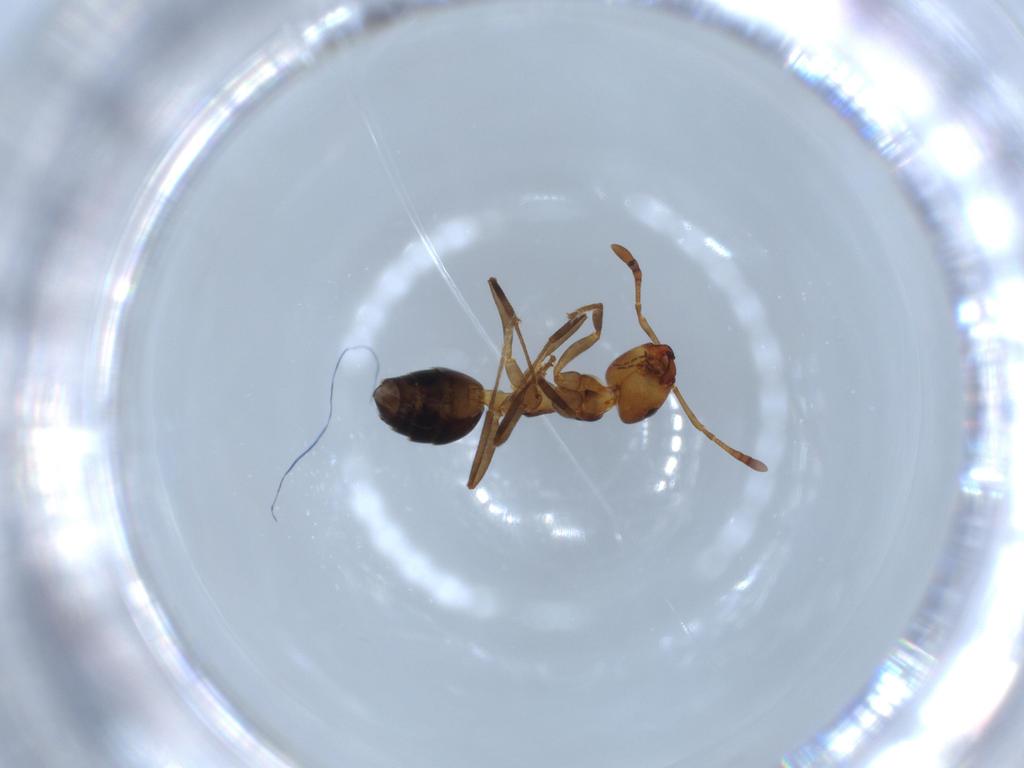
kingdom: Animalia
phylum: Arthropoda
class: Insecta
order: Hymenoptera
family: Formicidae
